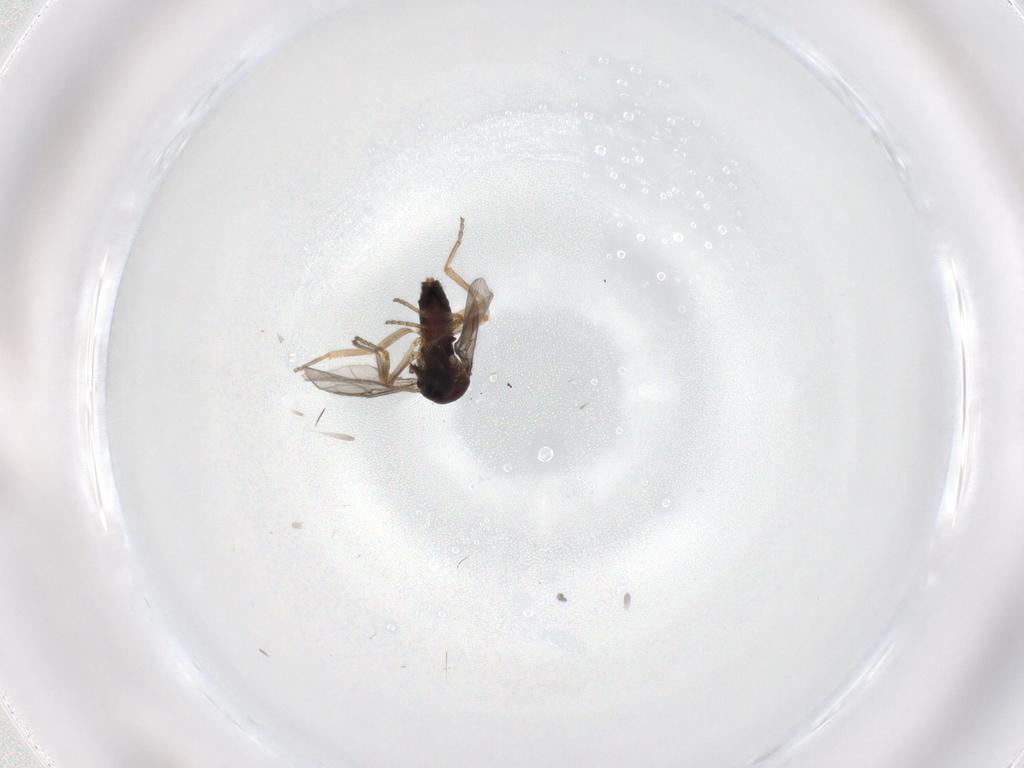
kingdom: Animalia
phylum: Arthropoda
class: Insecta
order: Diptera
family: Ceratopogonidae
